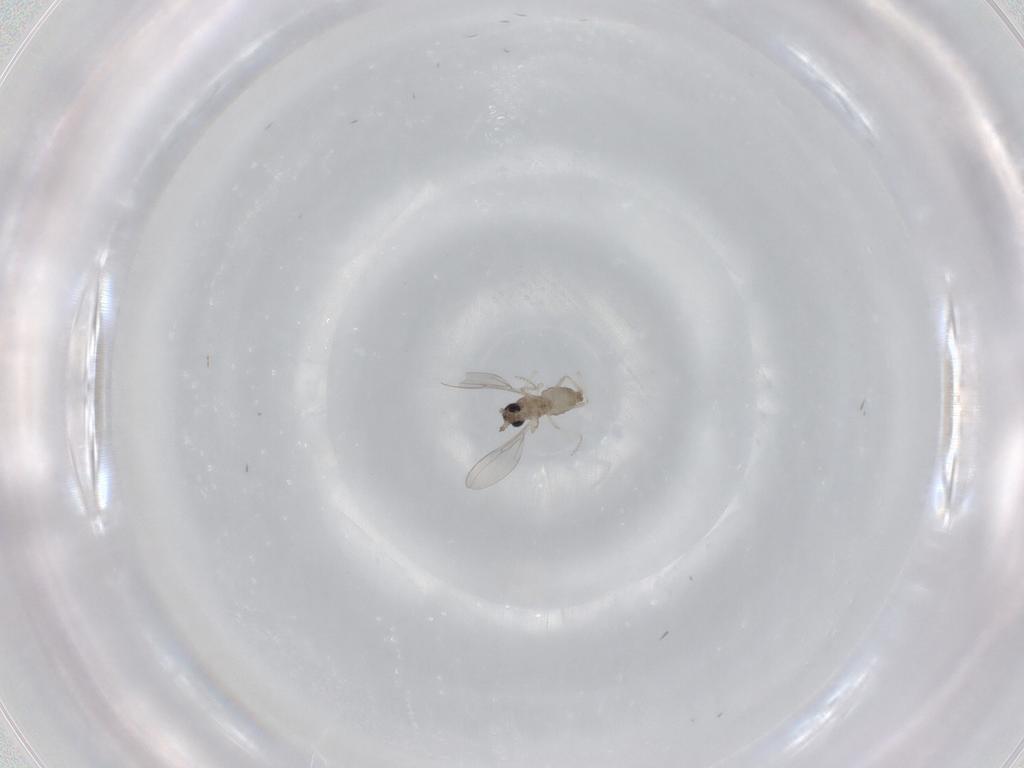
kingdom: Animalia
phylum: Arthropoda
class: Insecta
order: Diptera
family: Cecidomyiidae
